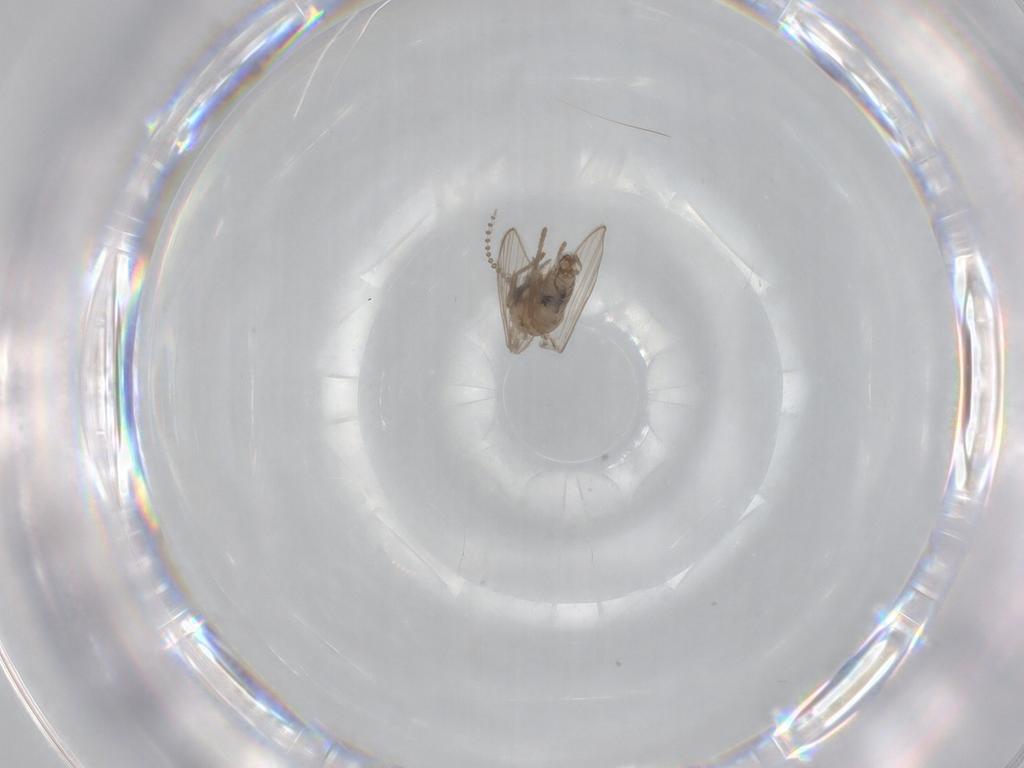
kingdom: Animalia
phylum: Arthropoda
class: Insecta
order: Diptera
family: Psychodidae
